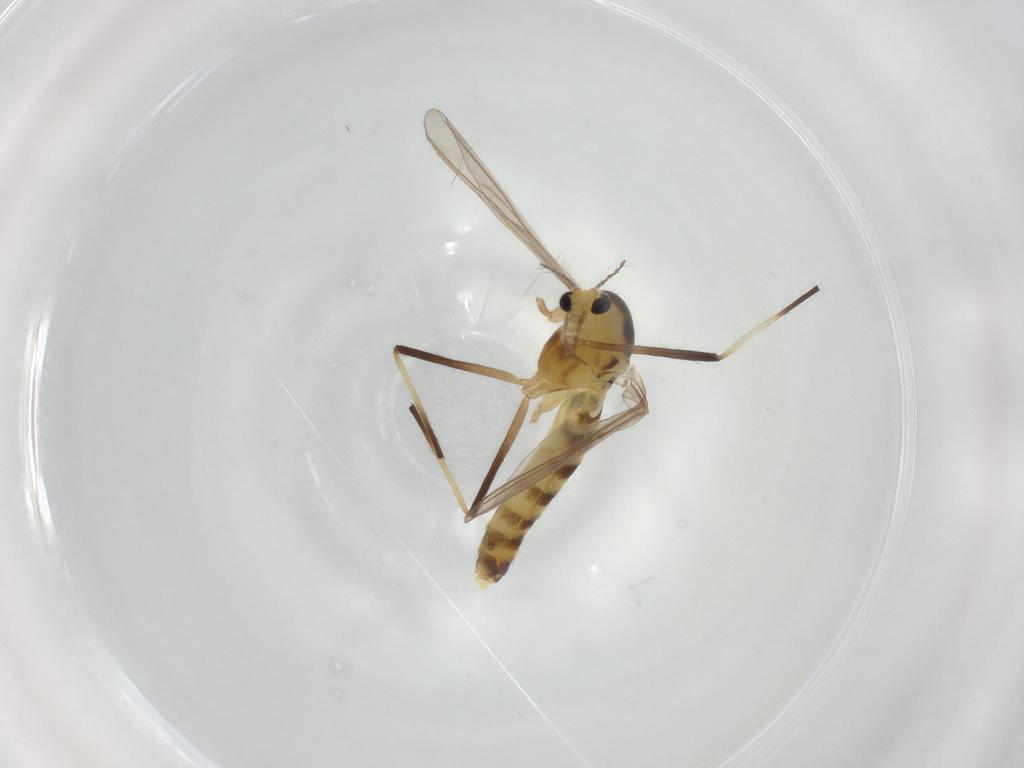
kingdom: Animalia
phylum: Arthropoda
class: Insecta
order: Diptera
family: Chironomidae
